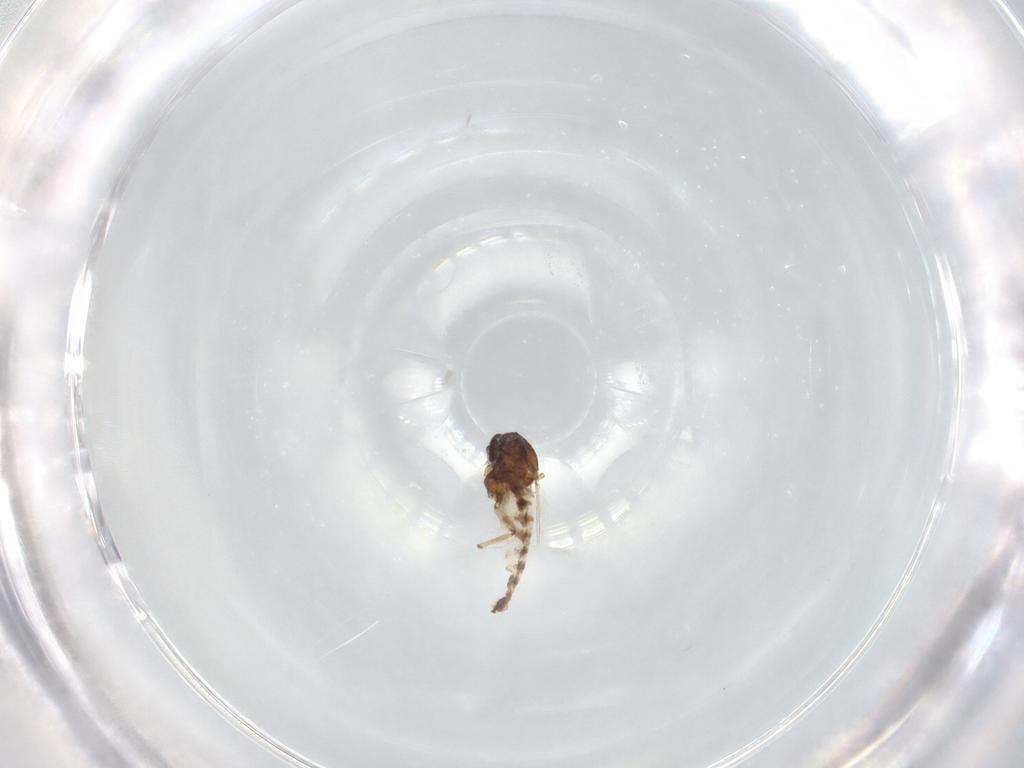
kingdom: Animalia
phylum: Arthropoda
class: Insecta
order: Diptera
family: Ceratopogonidae
